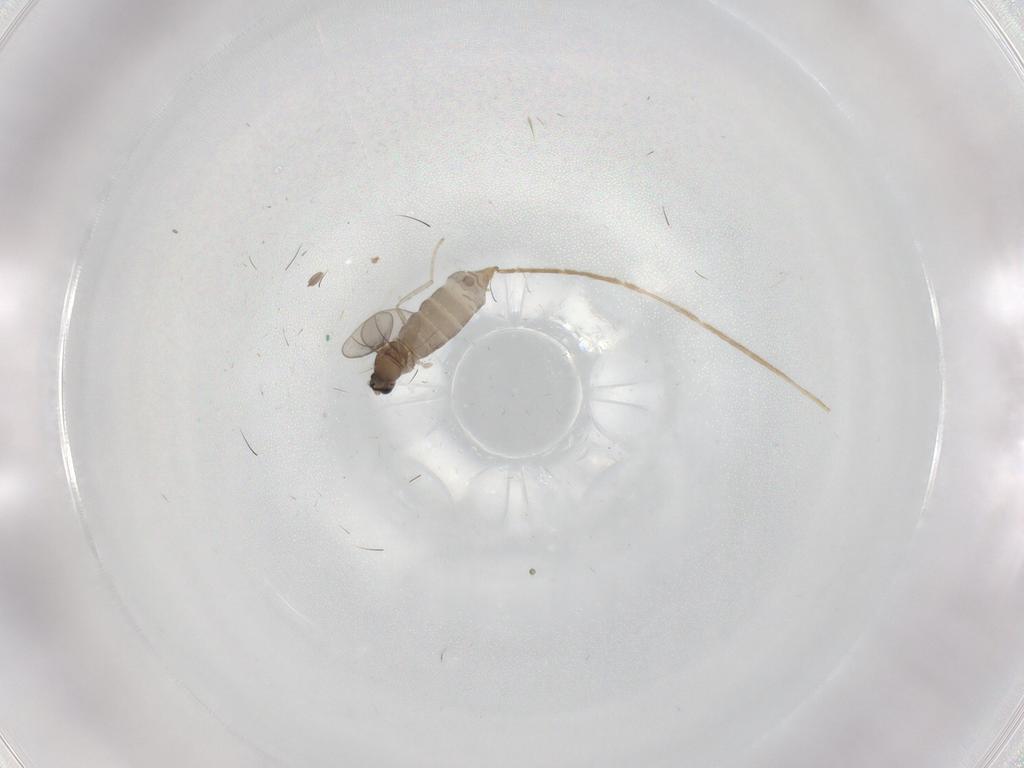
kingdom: Animalia
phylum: Arthropoda
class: Insecta
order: Diptera
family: Cecidomyiidae
